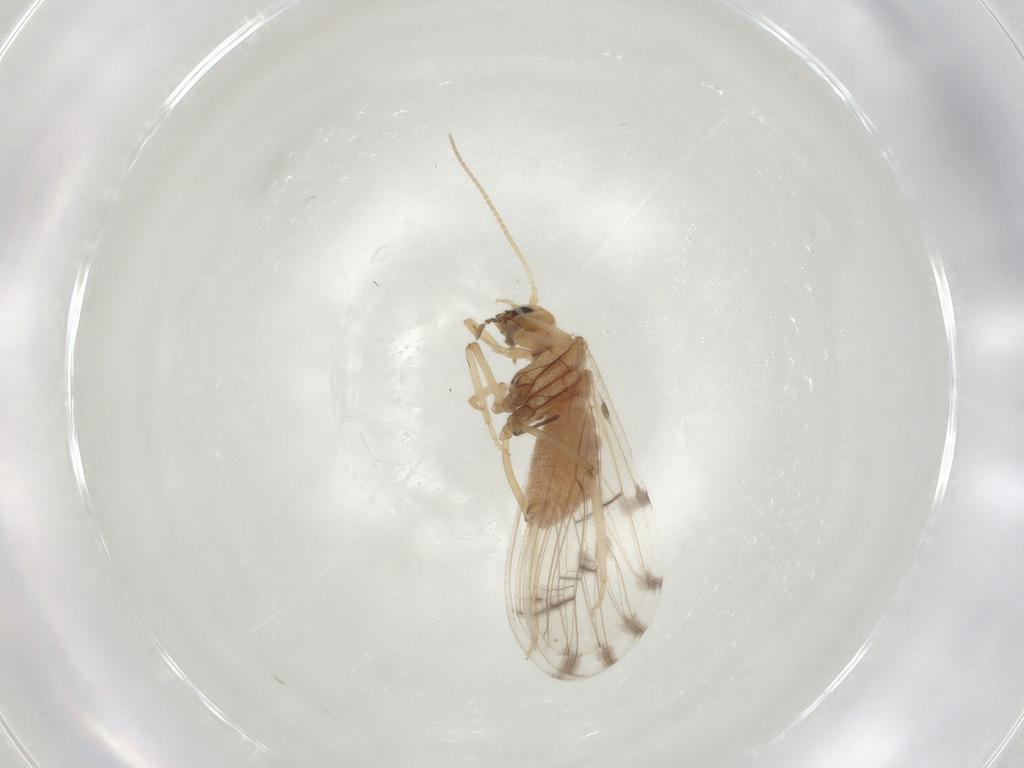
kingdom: Animalia
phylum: Arthropoda
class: Insecta
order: Neuroptera
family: Coniopterygidae
